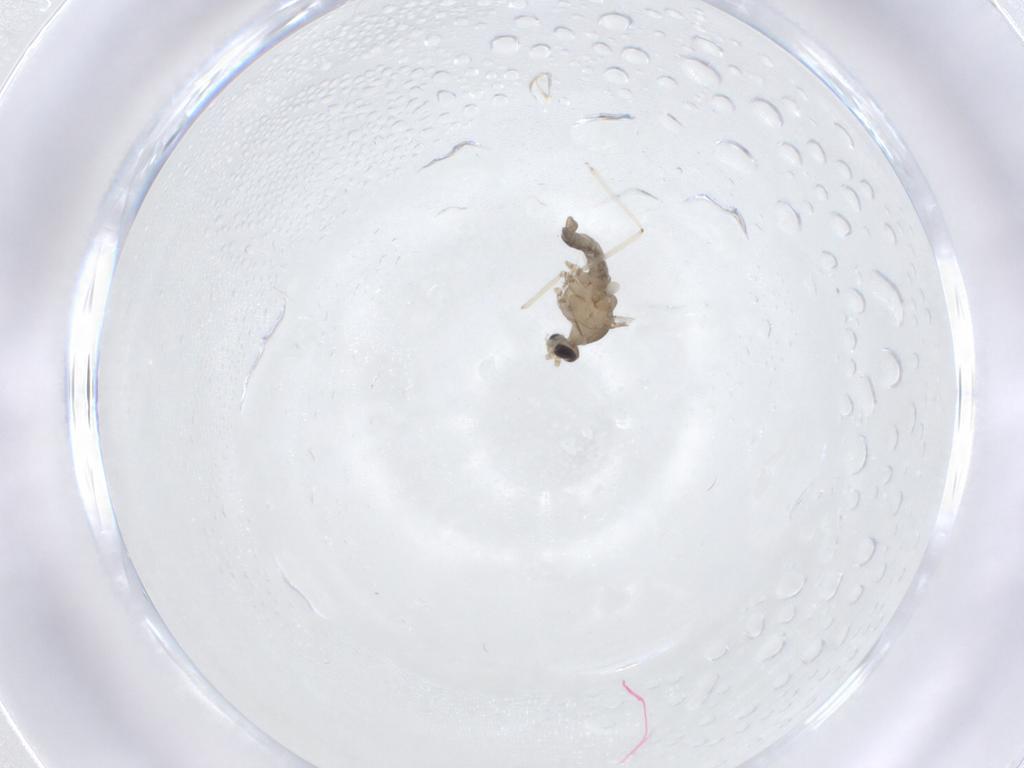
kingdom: Animalia
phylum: Arthropoda
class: Insecta
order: Diptera
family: Cecidomyiidae
